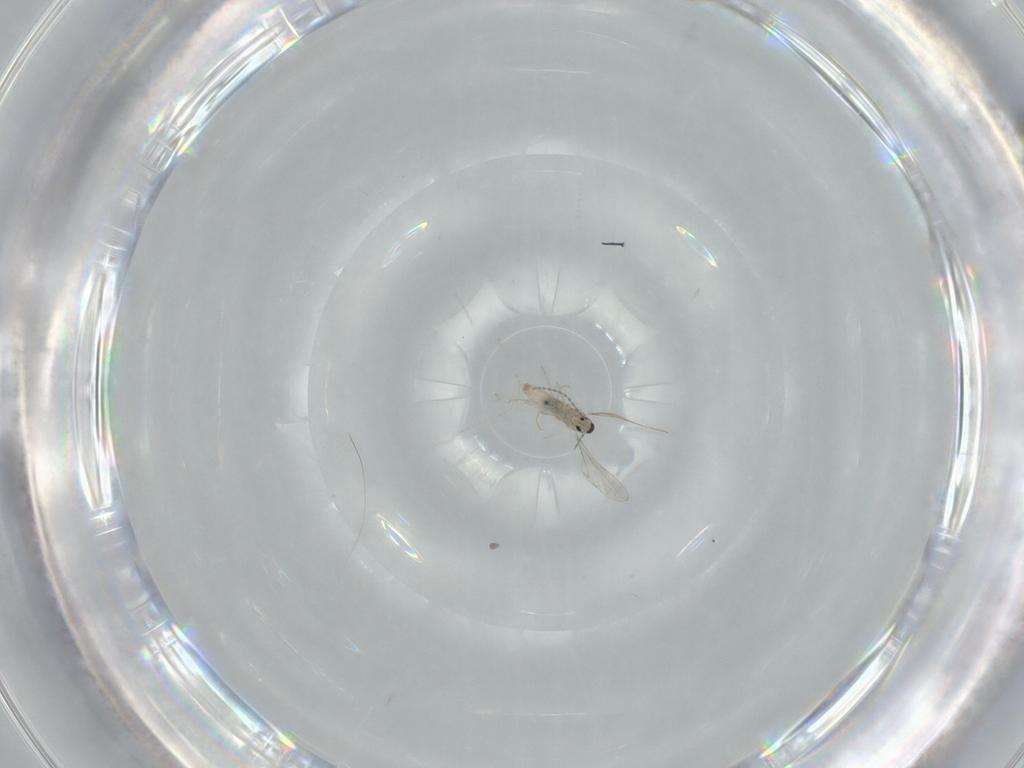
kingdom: Animalia
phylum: Arthropoda
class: Insecta
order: Diptera
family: Cecidomyiidae
